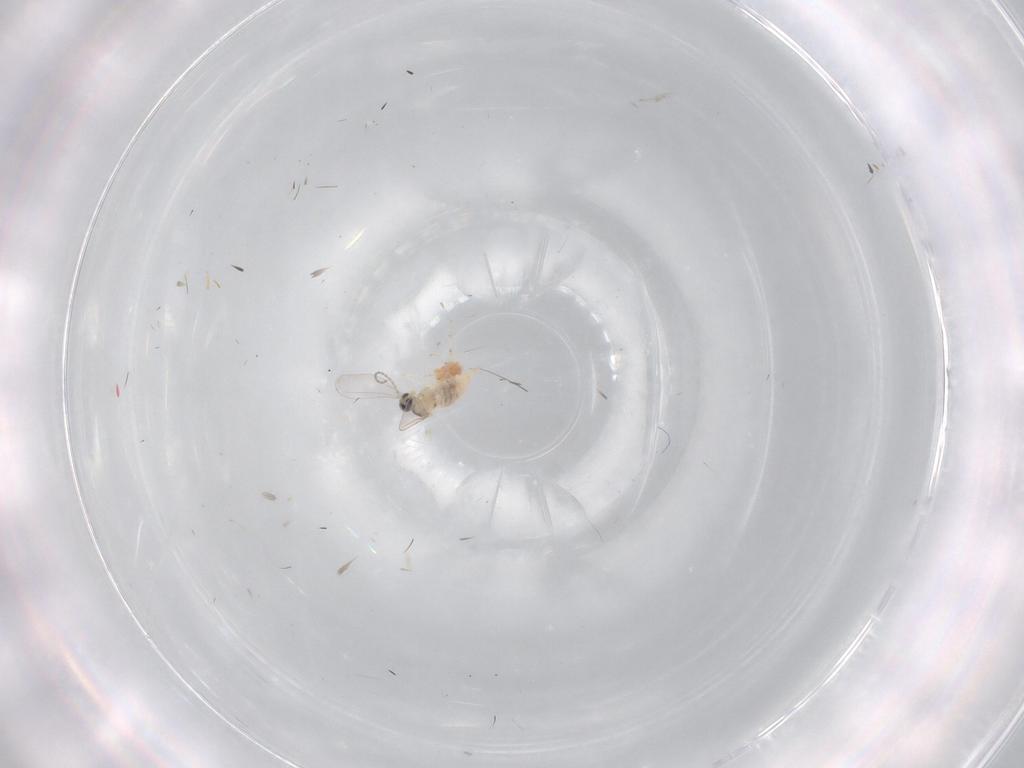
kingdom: Animalia
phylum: Arthropoda
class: Insecta
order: Diptera
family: Cecidomyiidae
